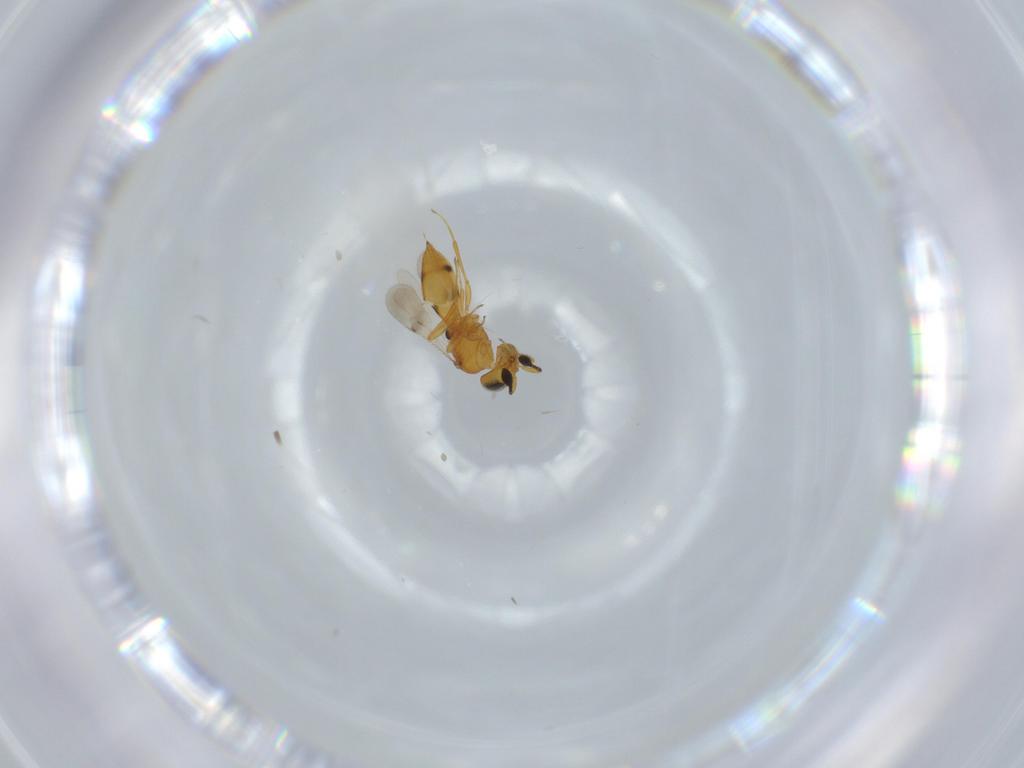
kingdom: Animalia
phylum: Arthropoda
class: Insecta
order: Hymenoptera
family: Scelionidae
